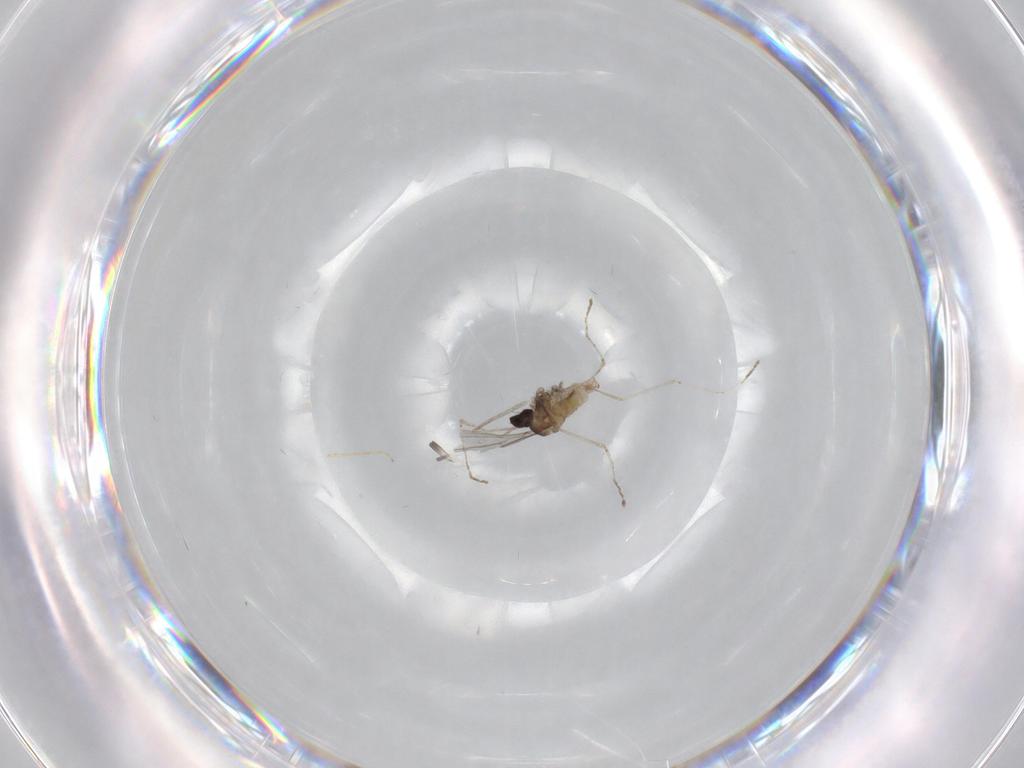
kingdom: Animalia
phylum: Arthropoda
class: Insecta
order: Diptera
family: Cecidomyiidae
